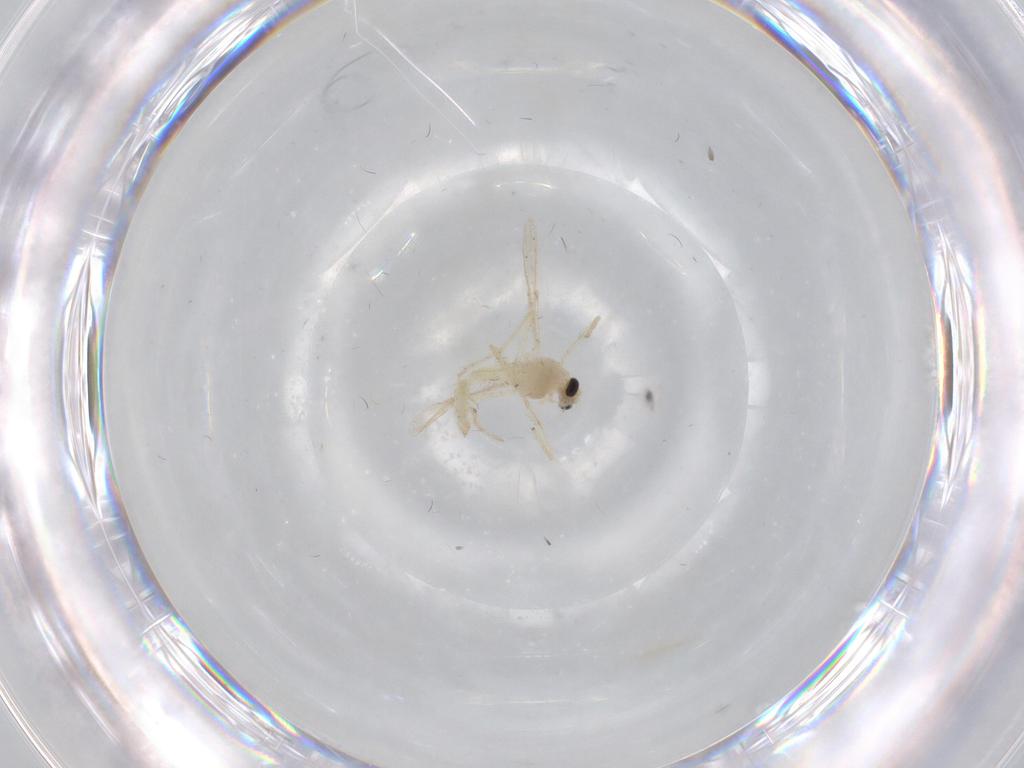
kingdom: Animalia
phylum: Arthropoda
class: Insecta
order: Diptera
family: Chironomidae
